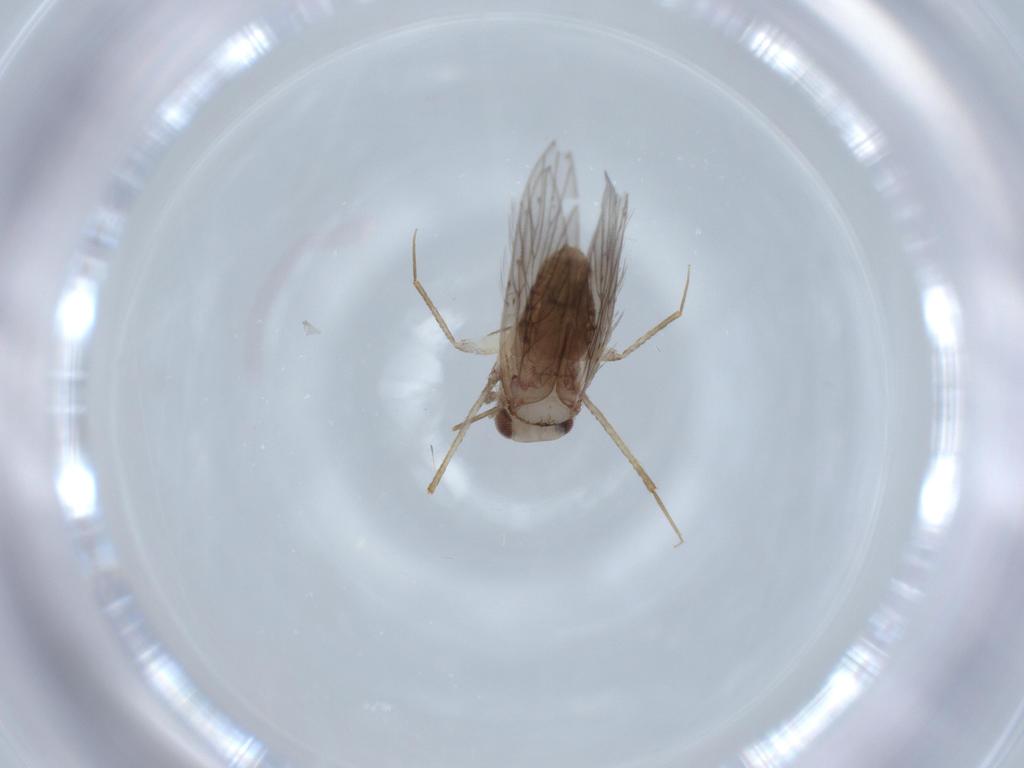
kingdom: Animalia
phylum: Arthropoda
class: Insecta
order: Psocodea
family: Lepidopsocidae
